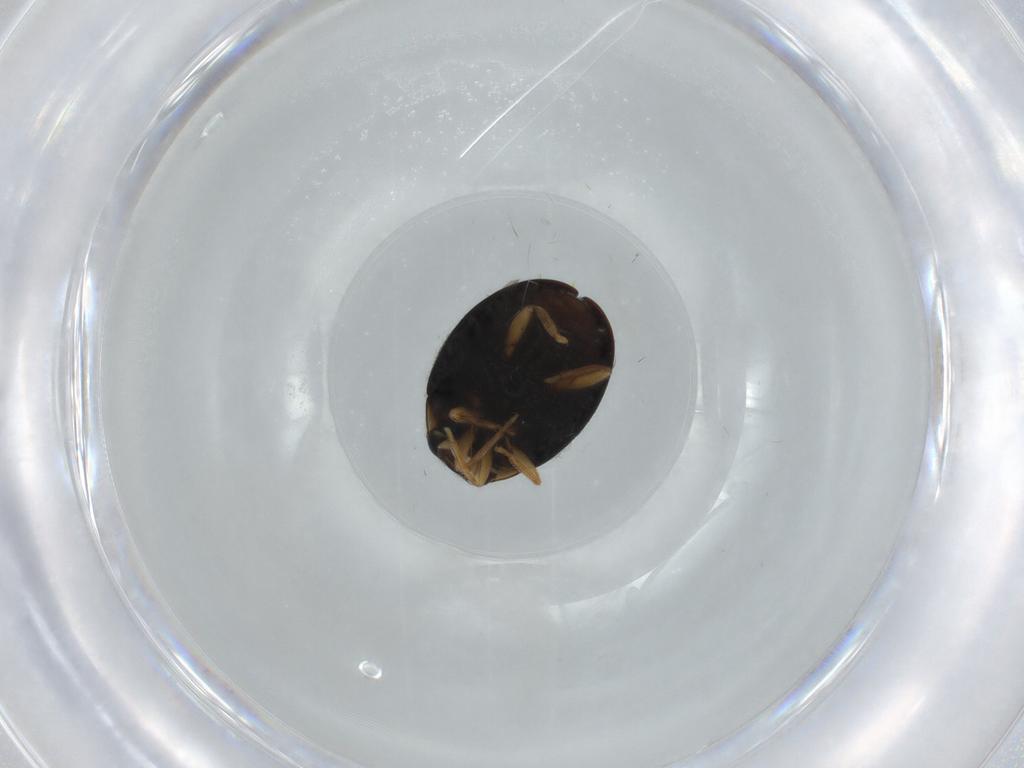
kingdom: Animalia
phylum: Arthropoda
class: Insecta
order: Coleoptera
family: Coccinellidae
